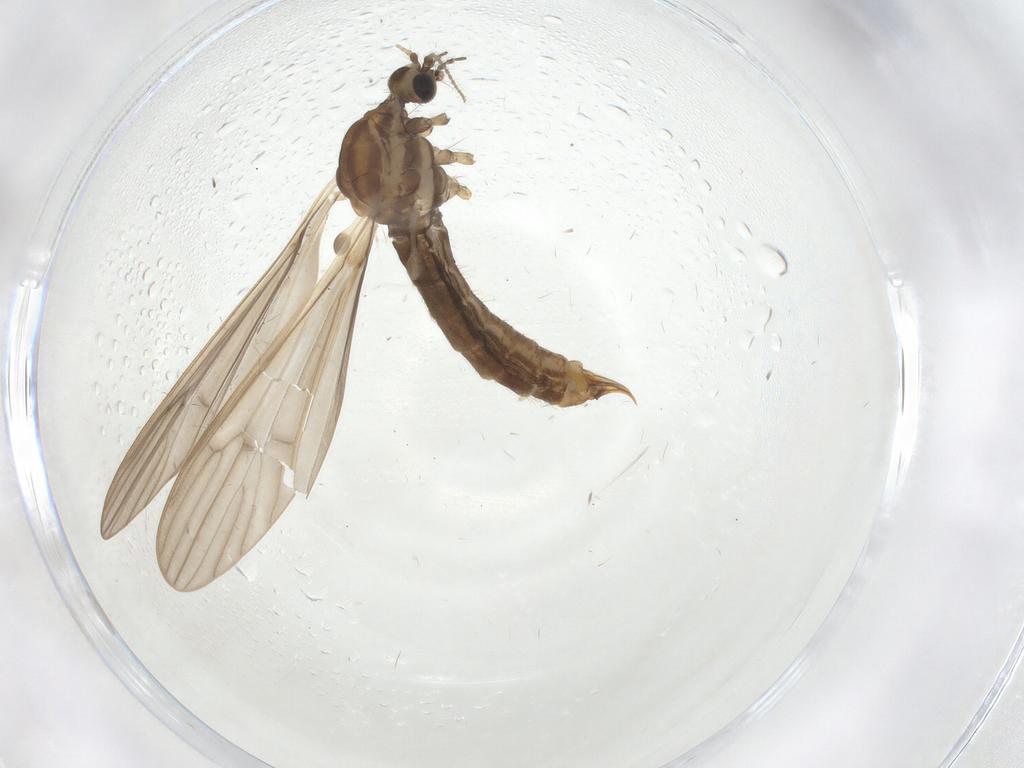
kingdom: Animalia
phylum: Arthropoda
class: Insecta
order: Diptera
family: Limoniidae
